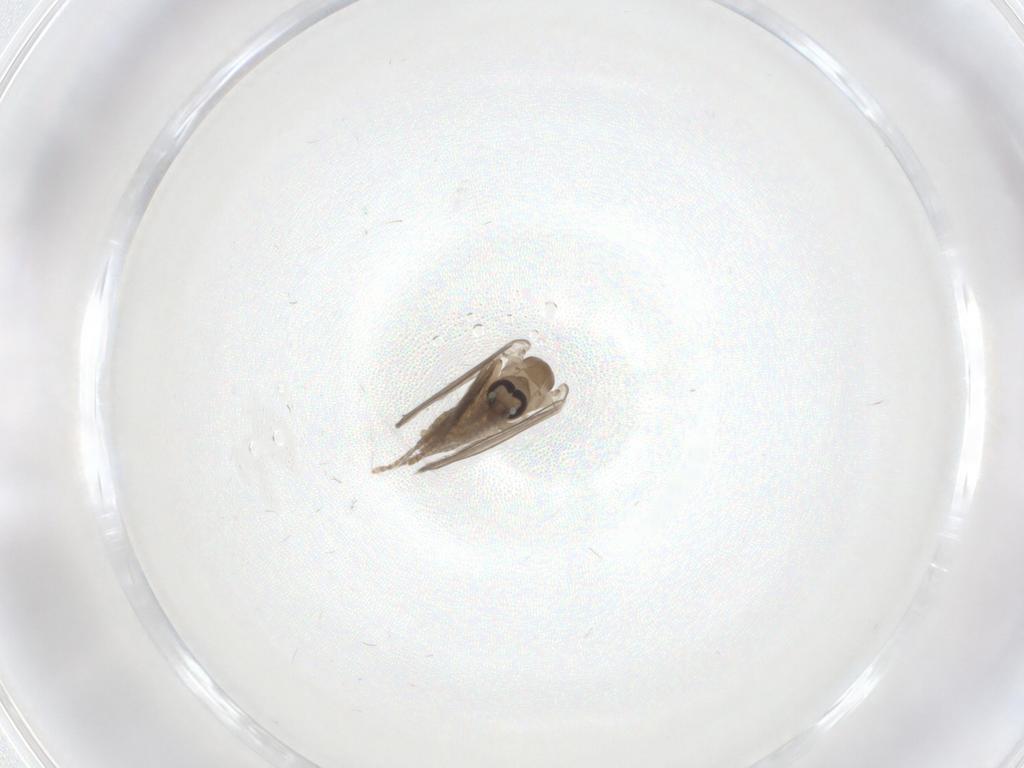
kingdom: Animalia
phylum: Arthropoda
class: Insecta
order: Diptera
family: Psychodidae
